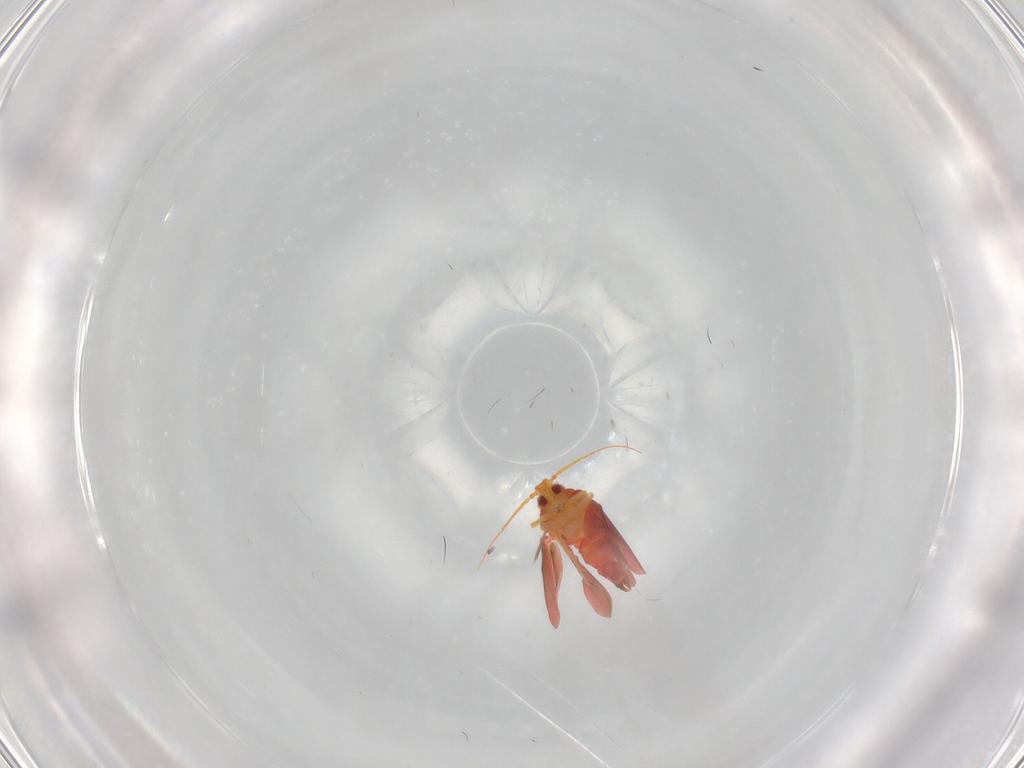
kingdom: Animalia
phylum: Arthropoda
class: Insecta
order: Hemiptera
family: Aleyrodidae
